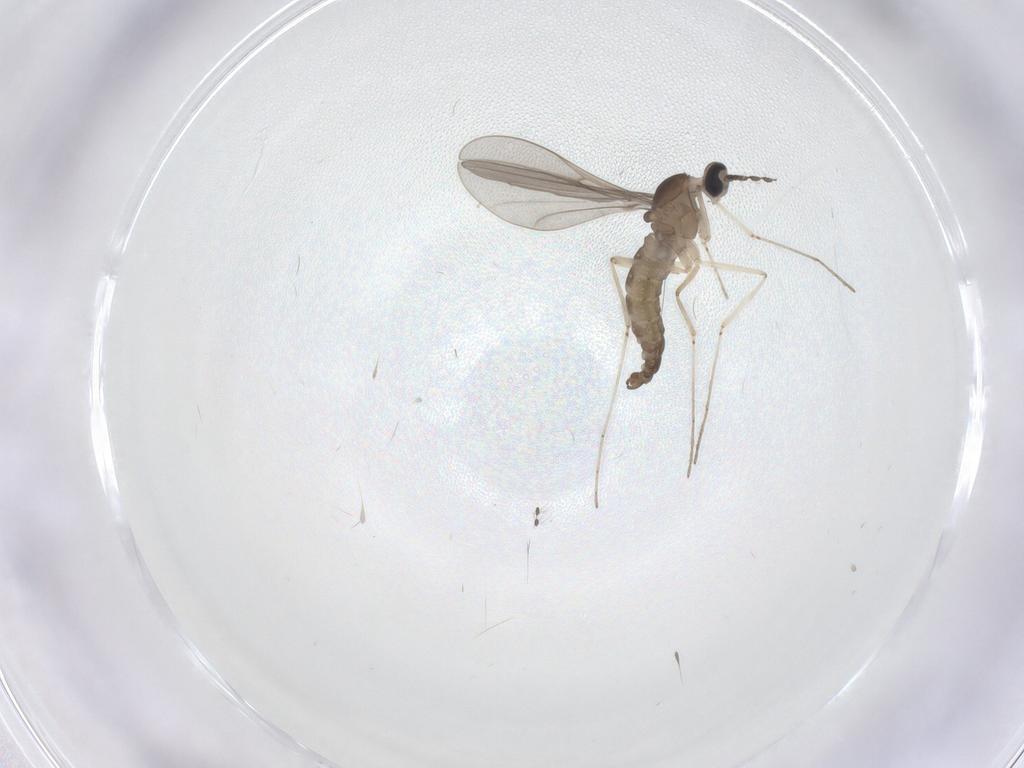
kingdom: Animalia
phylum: Arthropoda
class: Insecta
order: Diptera
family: Cecidomyiidae
